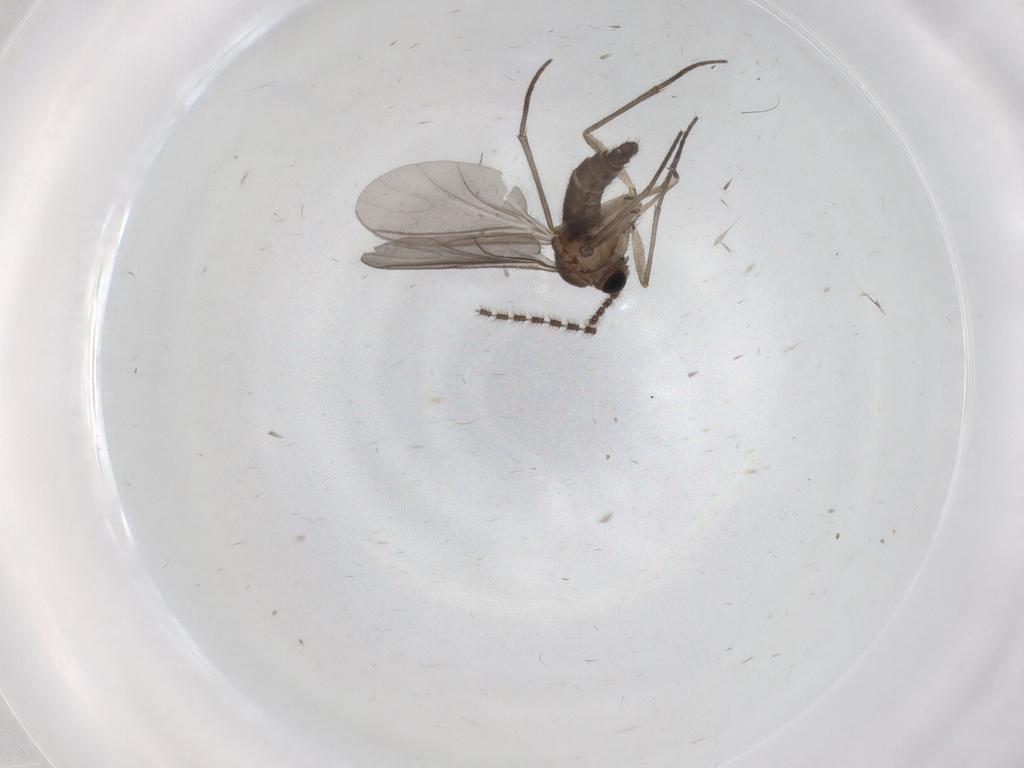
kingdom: Animalia
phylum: Arthropoda
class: Insecta
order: Diptera
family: Sciaridae
